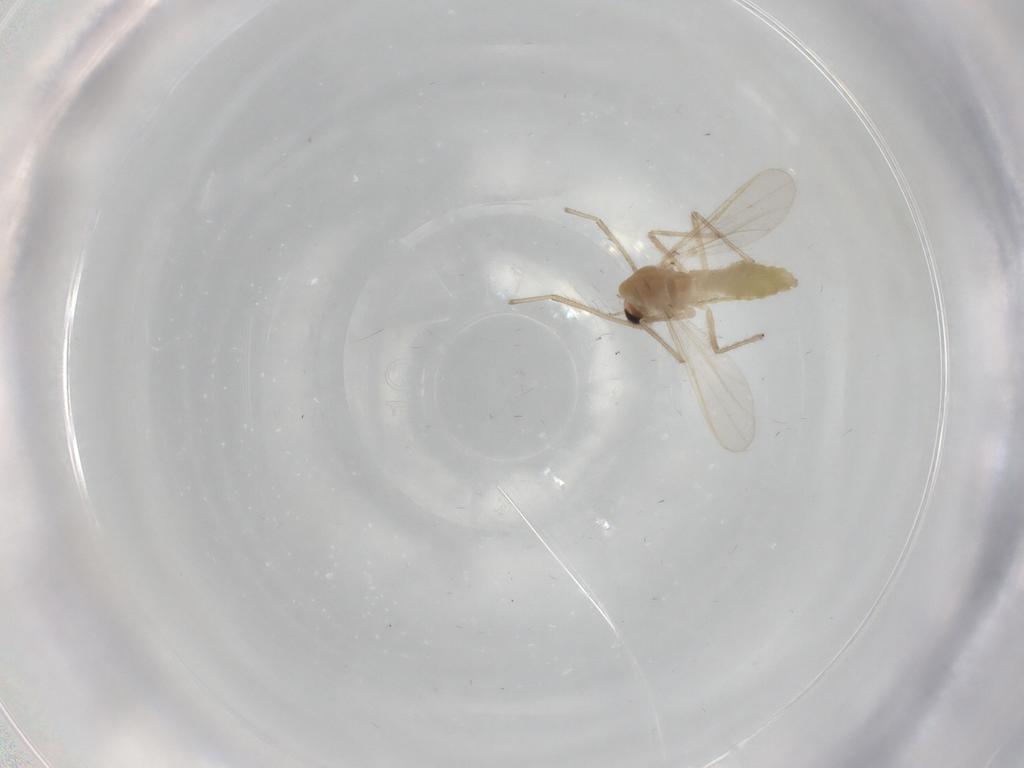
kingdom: Animalia
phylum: Arthropoda
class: Insecta
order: Diptera
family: Chironomidae
